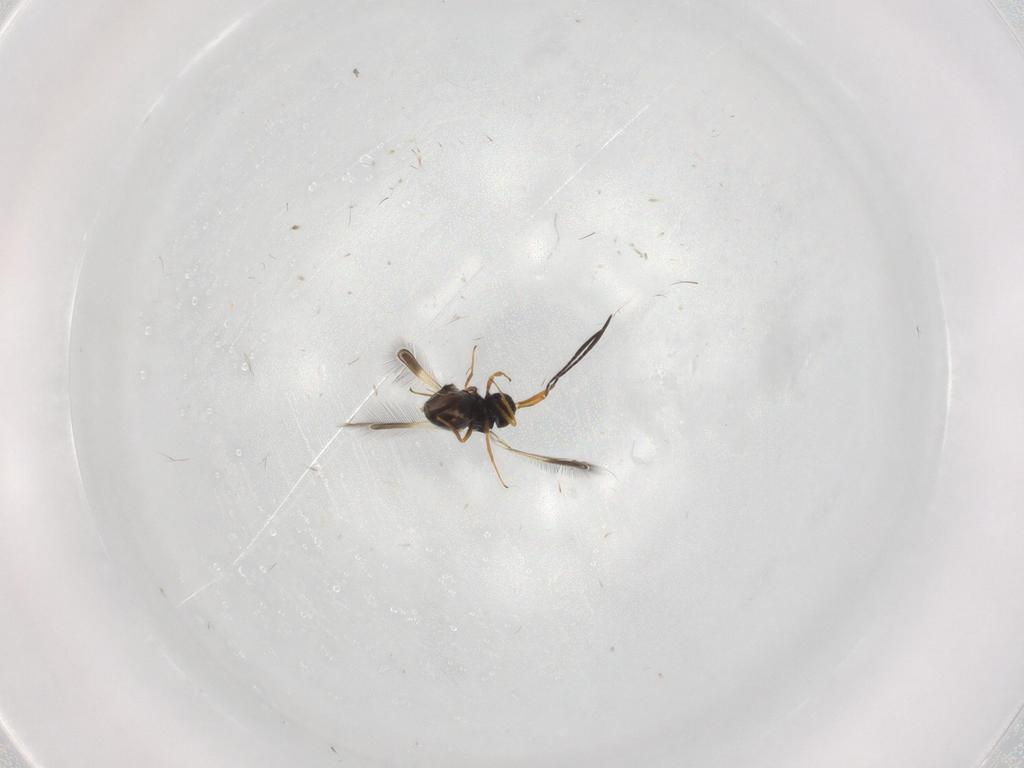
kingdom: Animalia
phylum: Arthropoda
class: Insecta
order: Hymenoptera
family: Mymaridae
